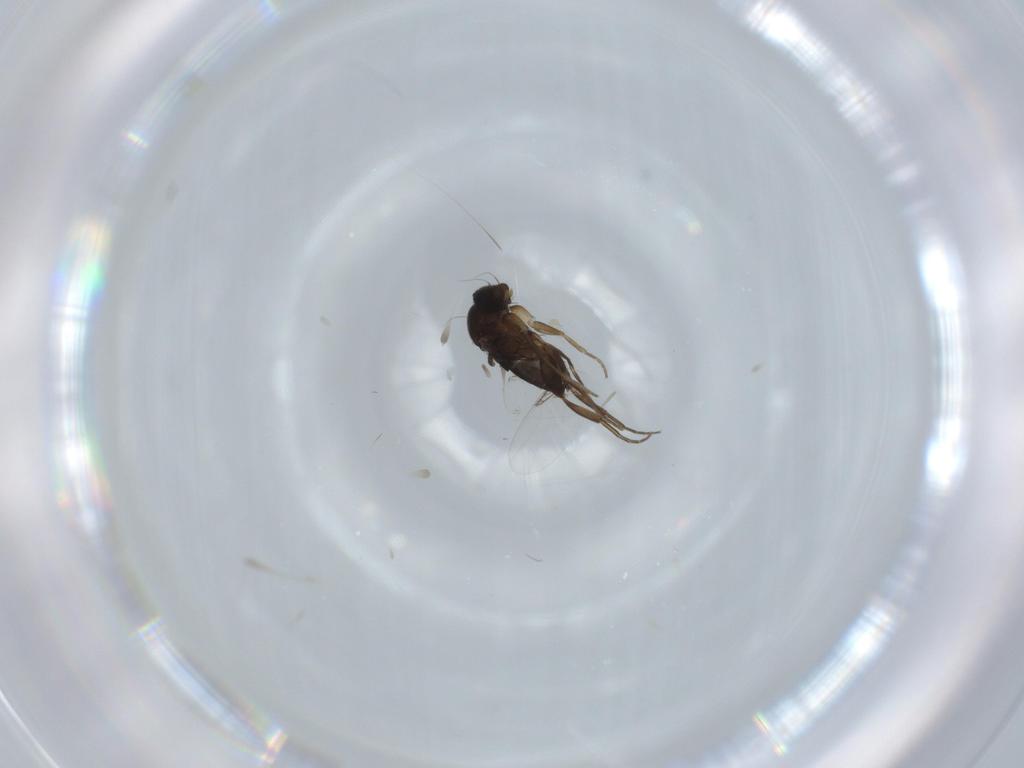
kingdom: Animalia
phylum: Arthropoda
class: Insecta
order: Diptera
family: Phoridae
